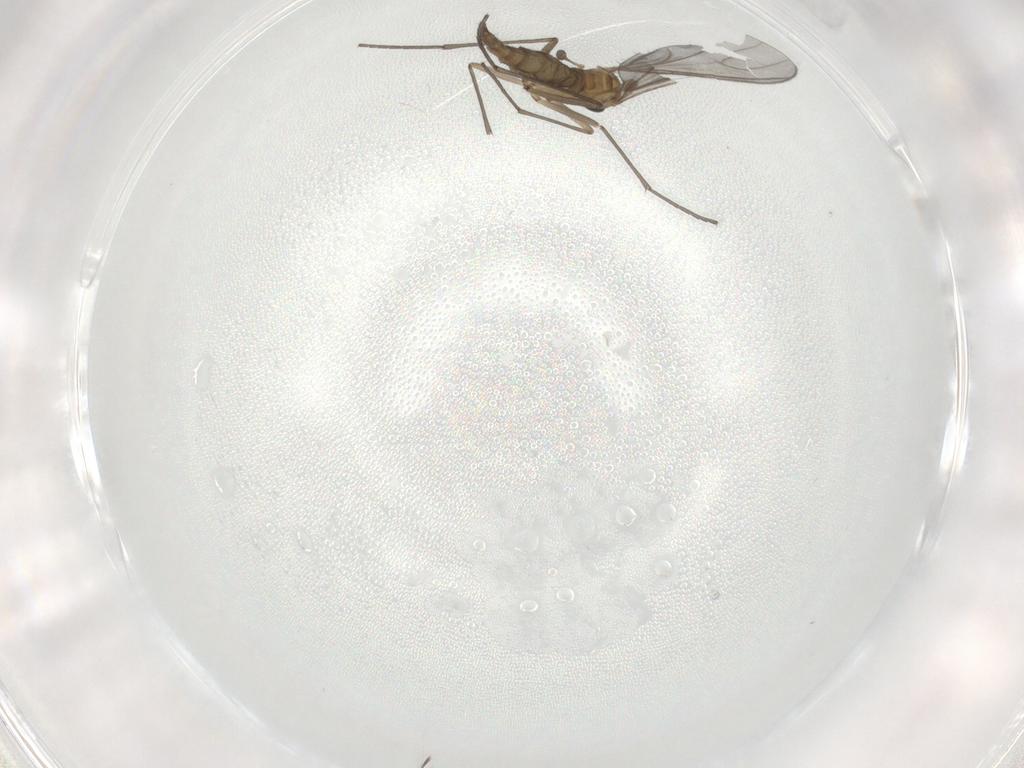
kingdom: Animalia
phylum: Arthropoda
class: Insecta
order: Diptera
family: Sciaridae
